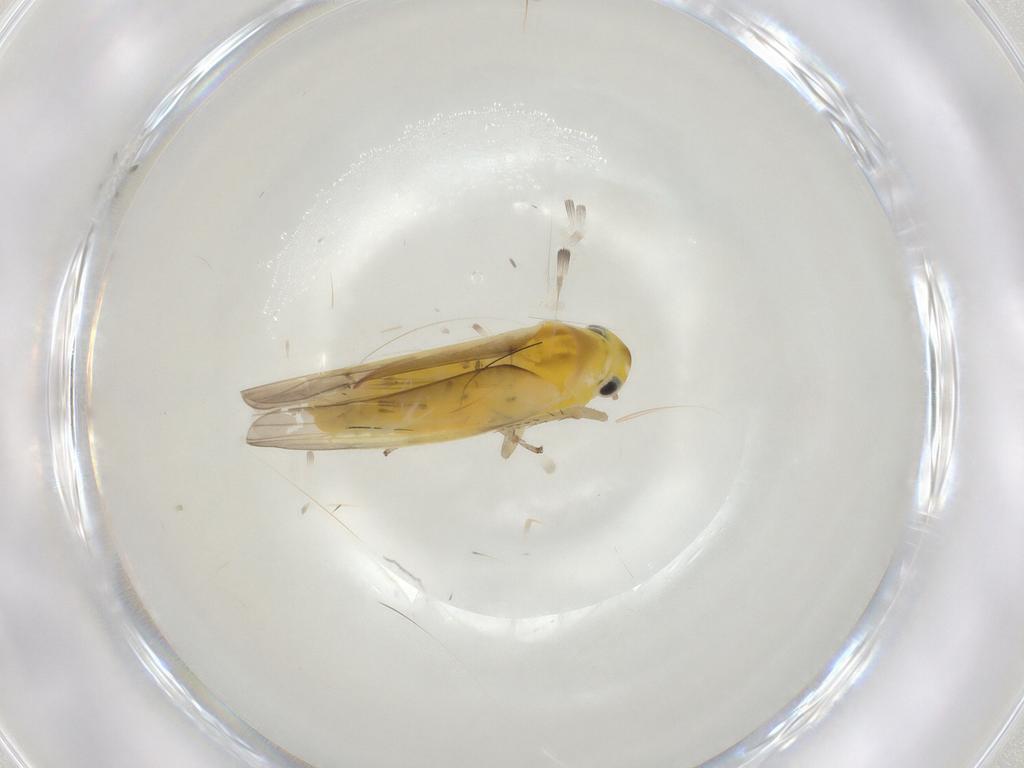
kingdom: Animalia
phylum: Arthropoda
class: Insecta
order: Hemiptera
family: Cicadellidae
